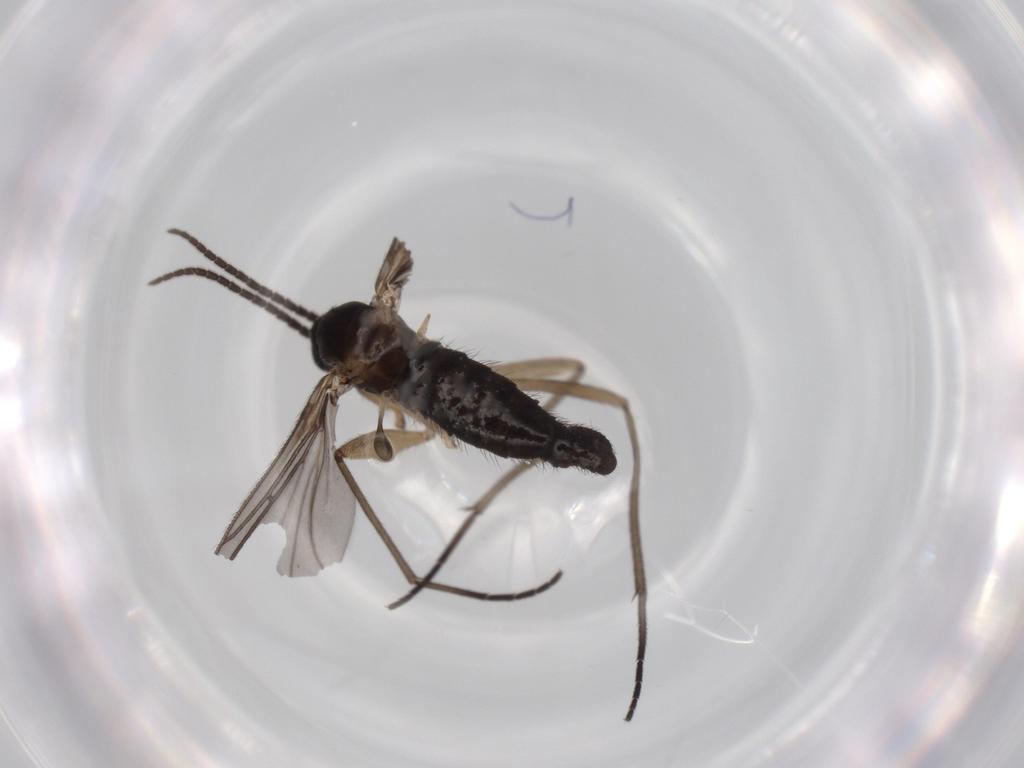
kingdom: Animalia
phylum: Arthropoda
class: Insecta
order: Diptera
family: Sciaridae
